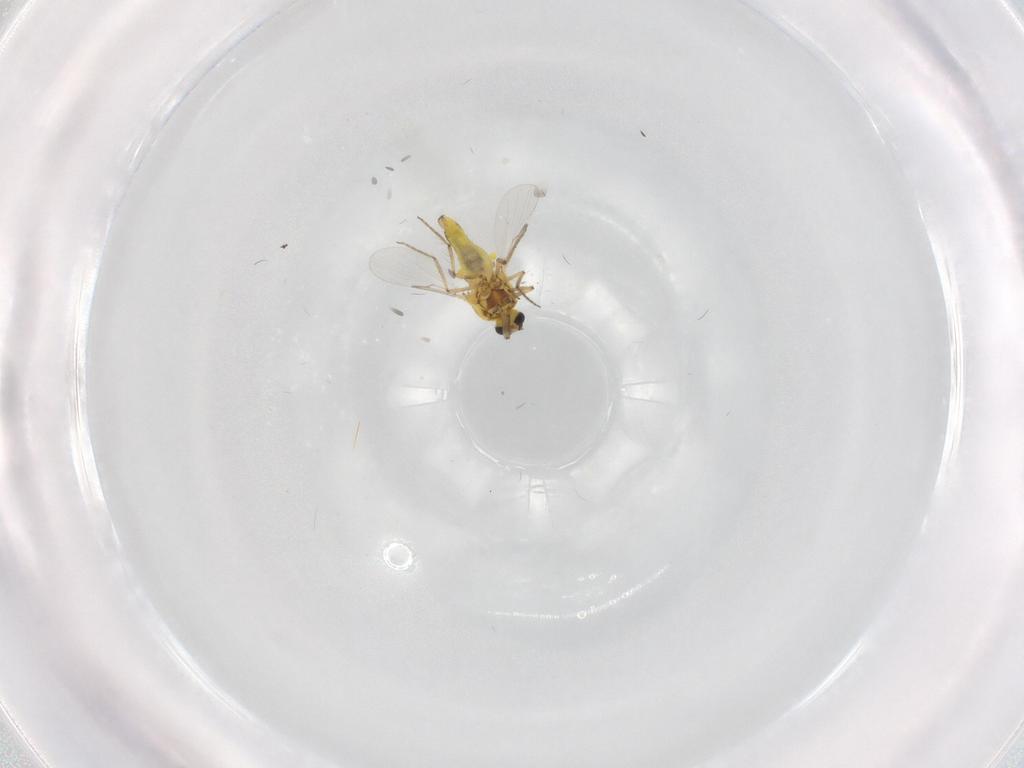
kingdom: Animalia
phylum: Arthropoda
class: Insecta
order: Diptera
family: Ceratopogonidae
